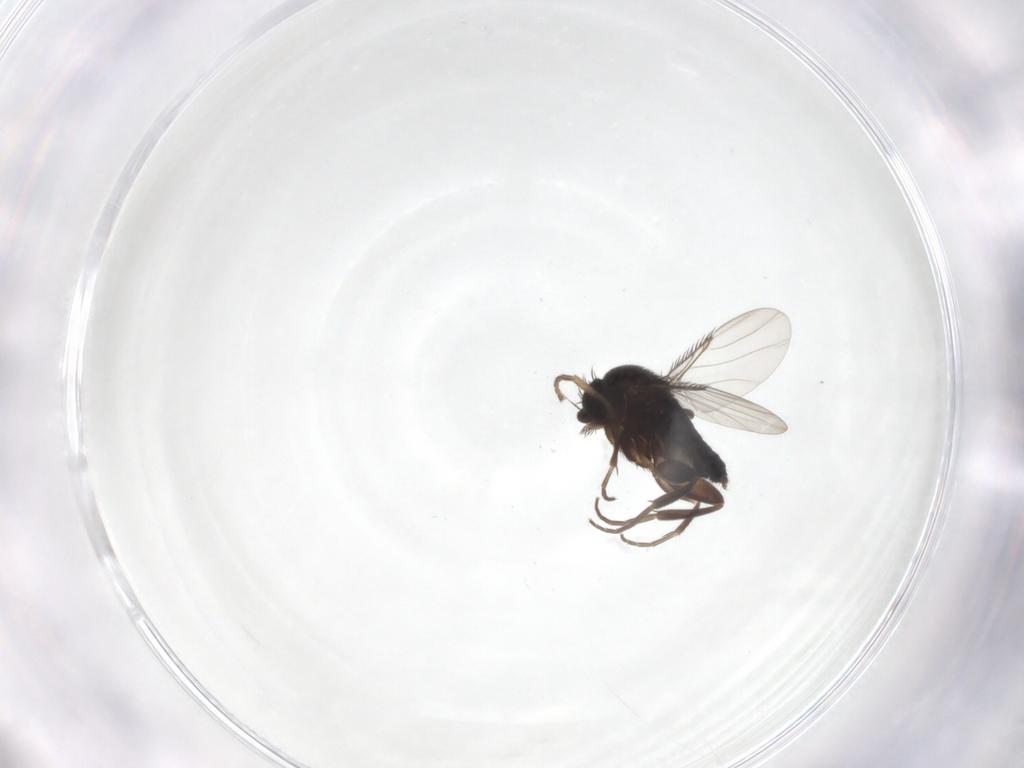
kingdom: Animalia
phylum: Arthropoda
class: Insecta
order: Diptera
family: Phoridae
